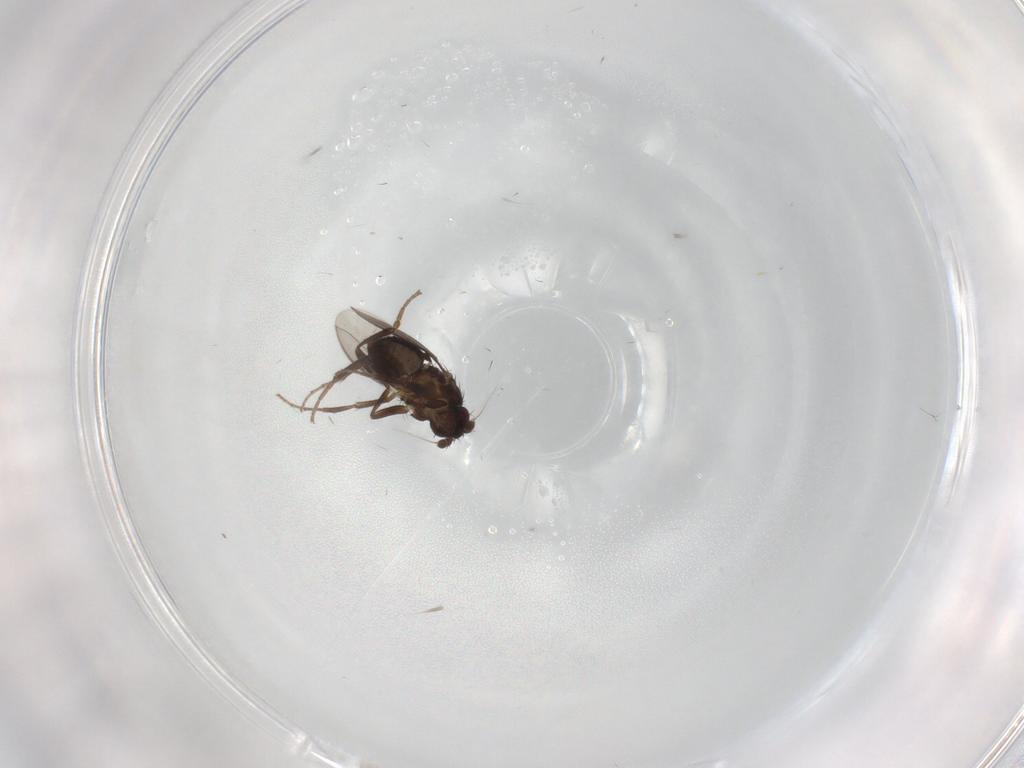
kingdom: Animalia
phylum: Arthropoda
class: Insecta
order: Diptera
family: Sphaeroceridae
